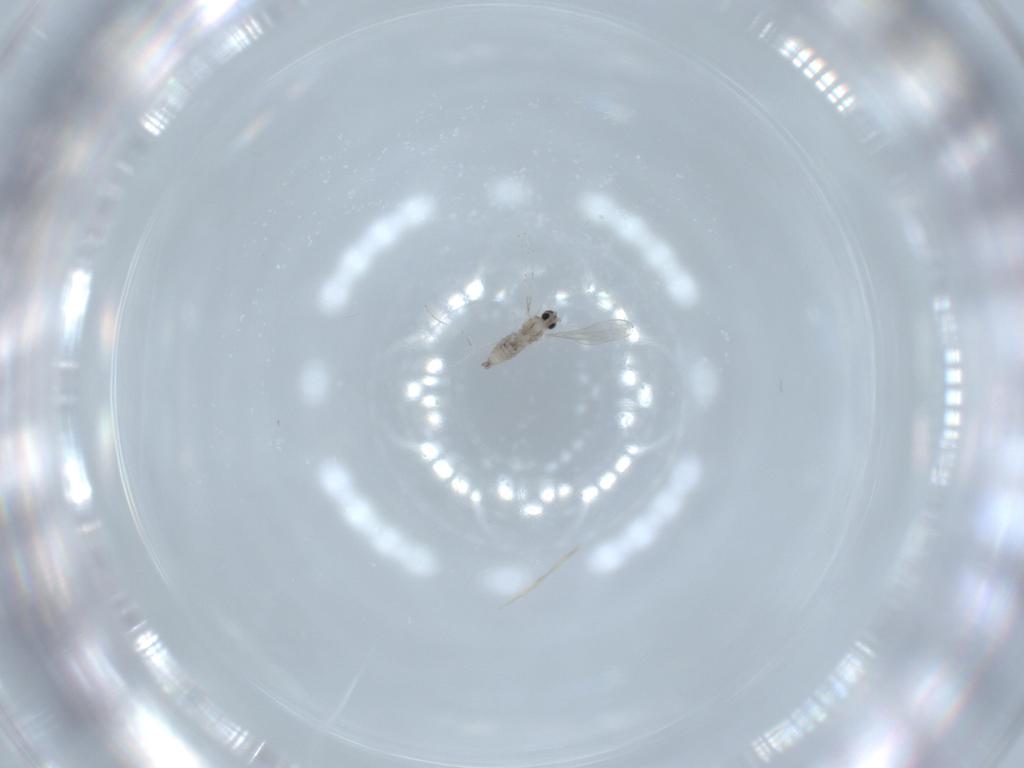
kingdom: Animalia
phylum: Arthropoda
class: Insecta
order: Diptera
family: Cecidomyiidae
